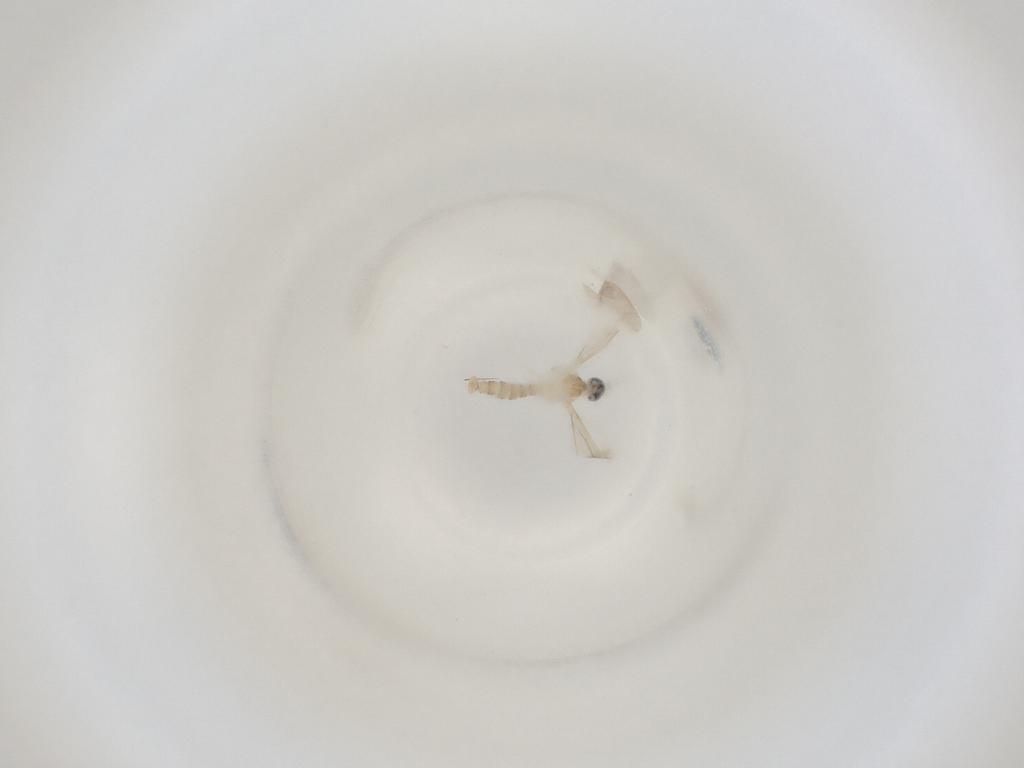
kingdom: Animalia
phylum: Arthropoda
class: Insecta
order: Diptera
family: Cecidomyiidae
